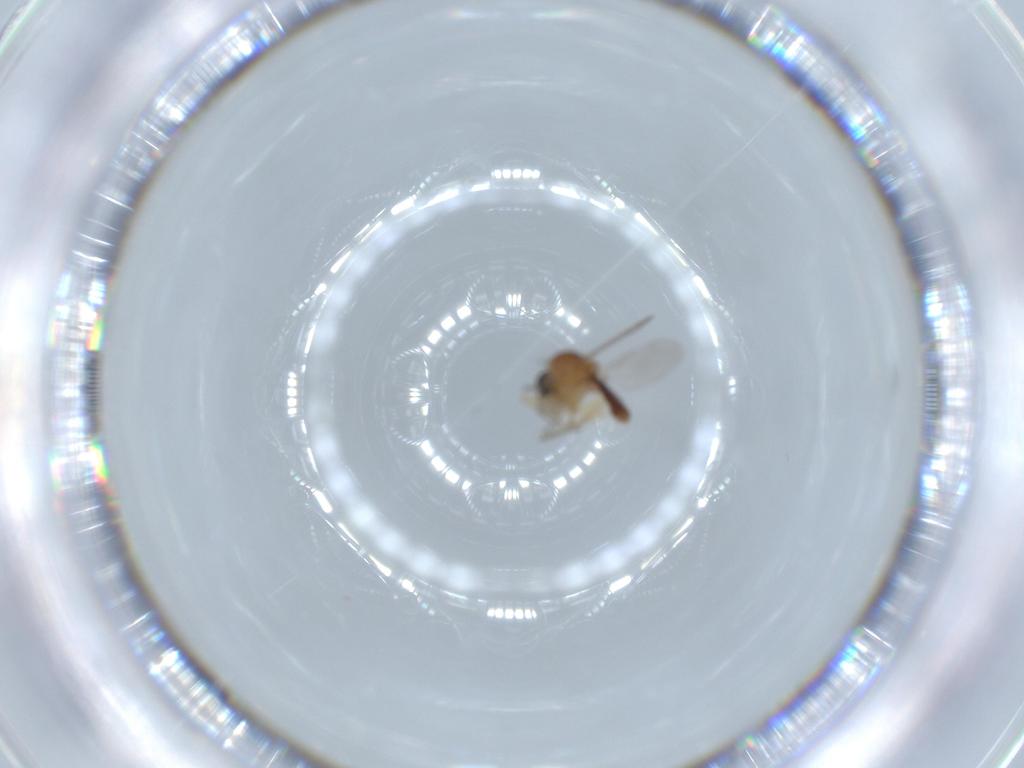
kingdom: Animalia
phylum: Arthropoda
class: Insecta
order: Diptera
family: Ceratopogonidae
